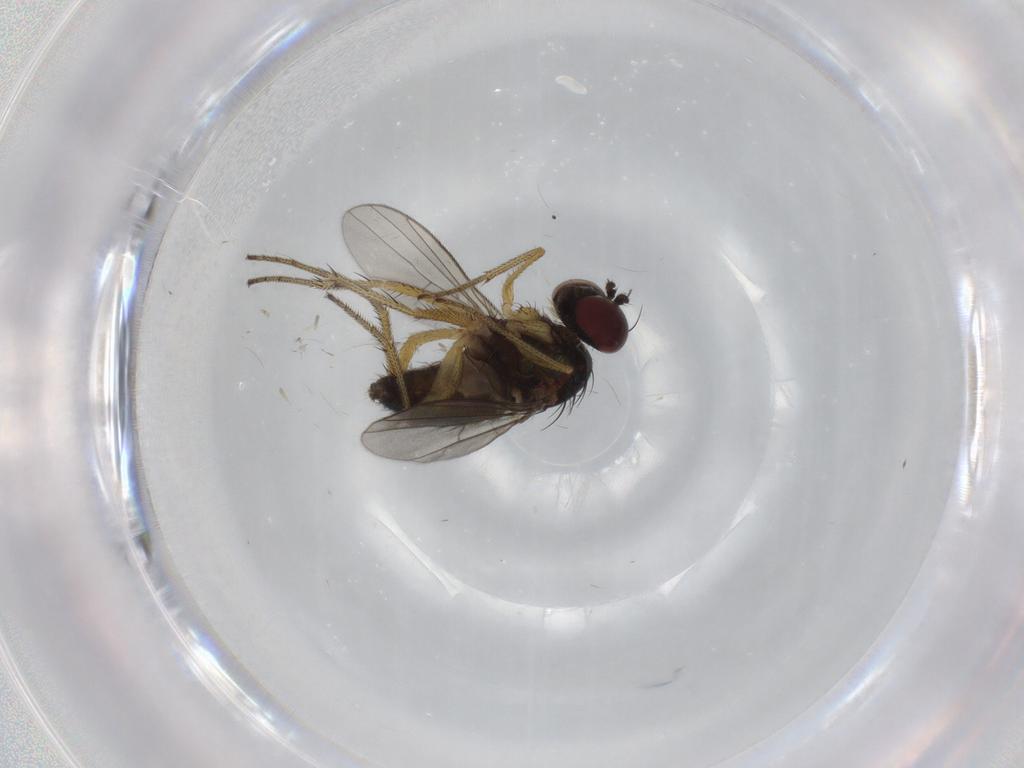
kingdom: Animalia
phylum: Arthropoda
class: Insecta
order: Diptera
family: Dolichopodidae
